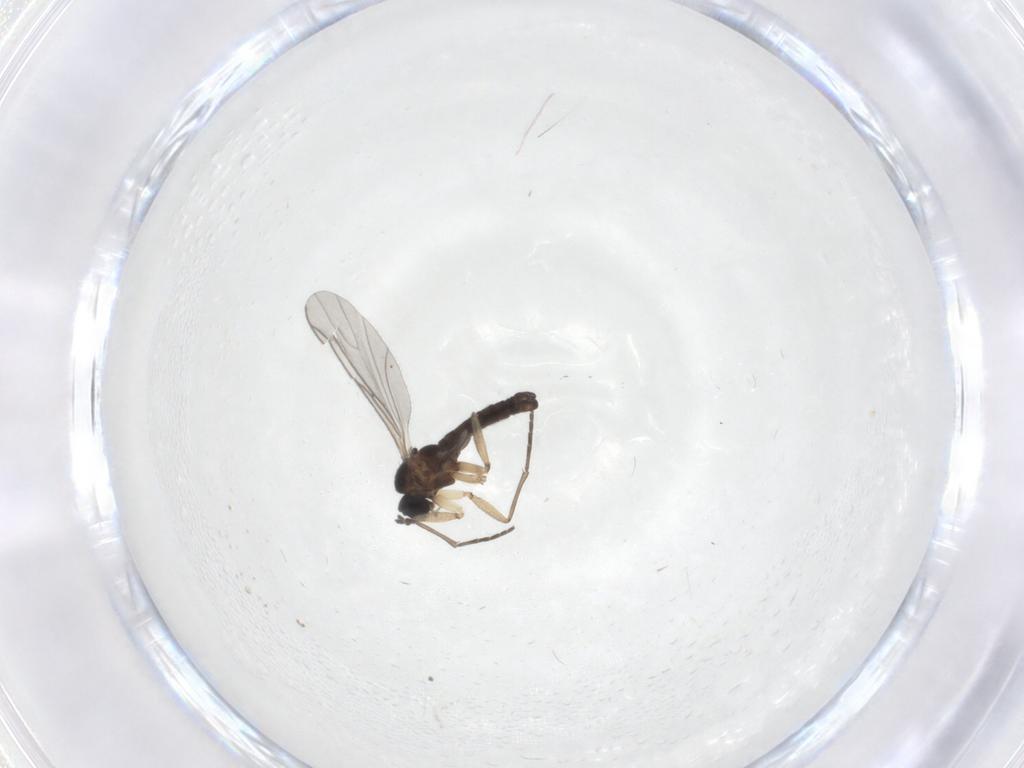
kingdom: Animalia
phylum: Arthropoda
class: Insecta
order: Diptera
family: Sciaridae
